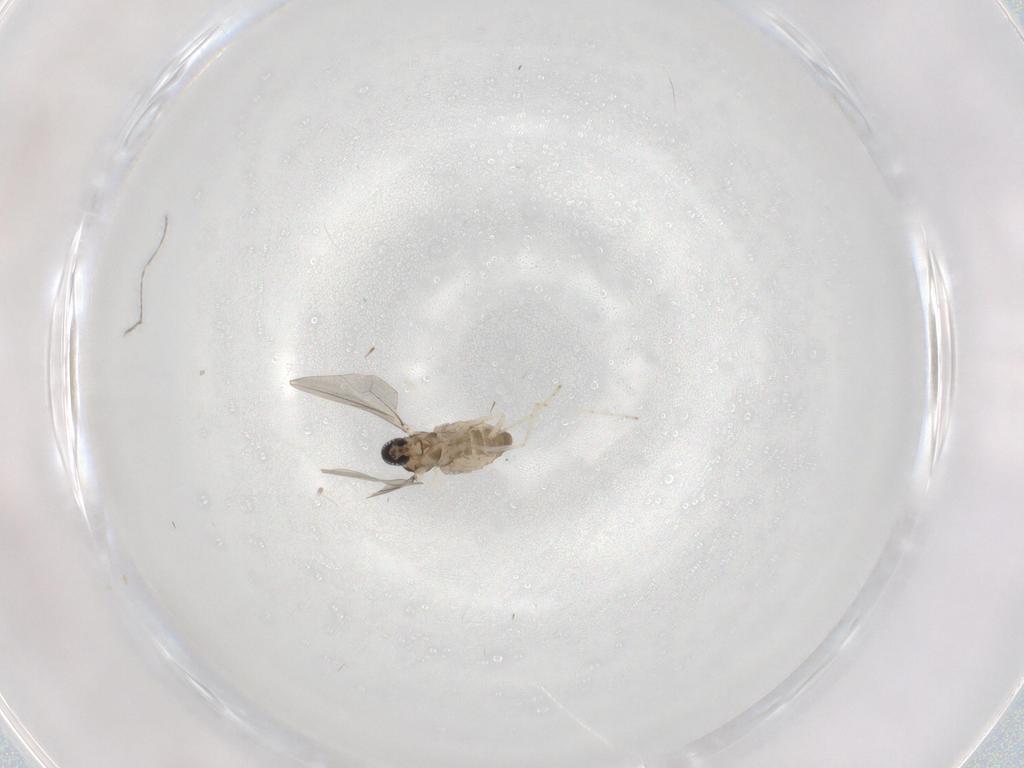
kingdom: Animalia
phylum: Arthropoda
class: Insecta
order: Diptera
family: Cecidomyiidae
